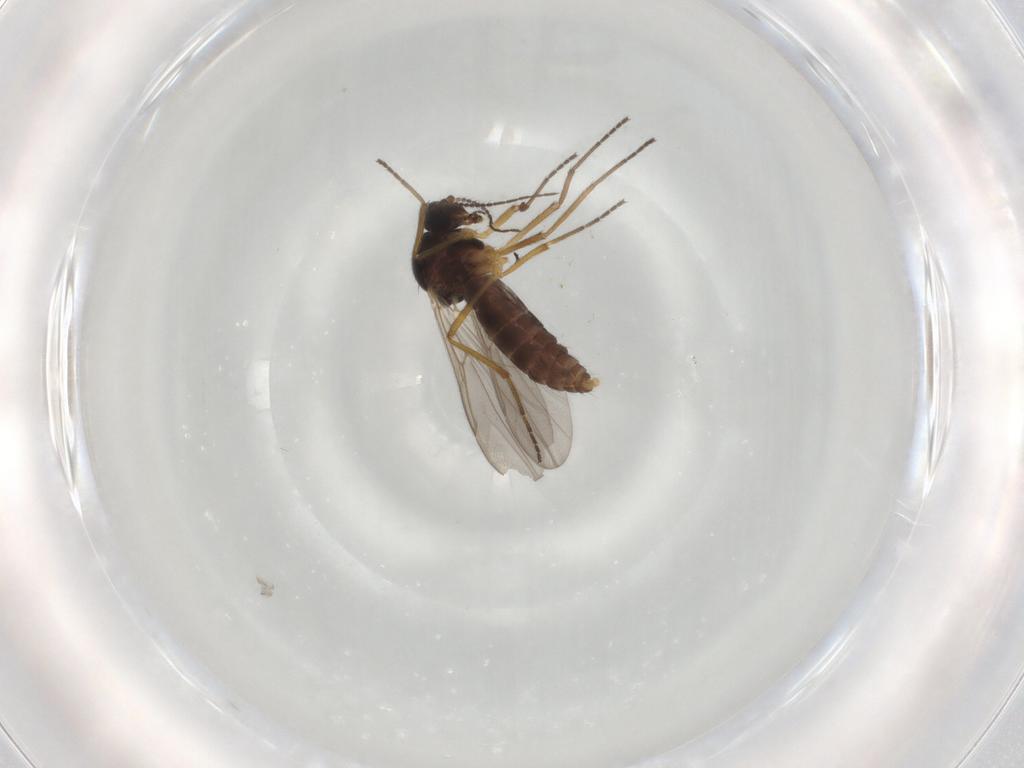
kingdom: Animalia
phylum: Arthropoda
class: Insecta
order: Diptera
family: Ceratopogonidae
